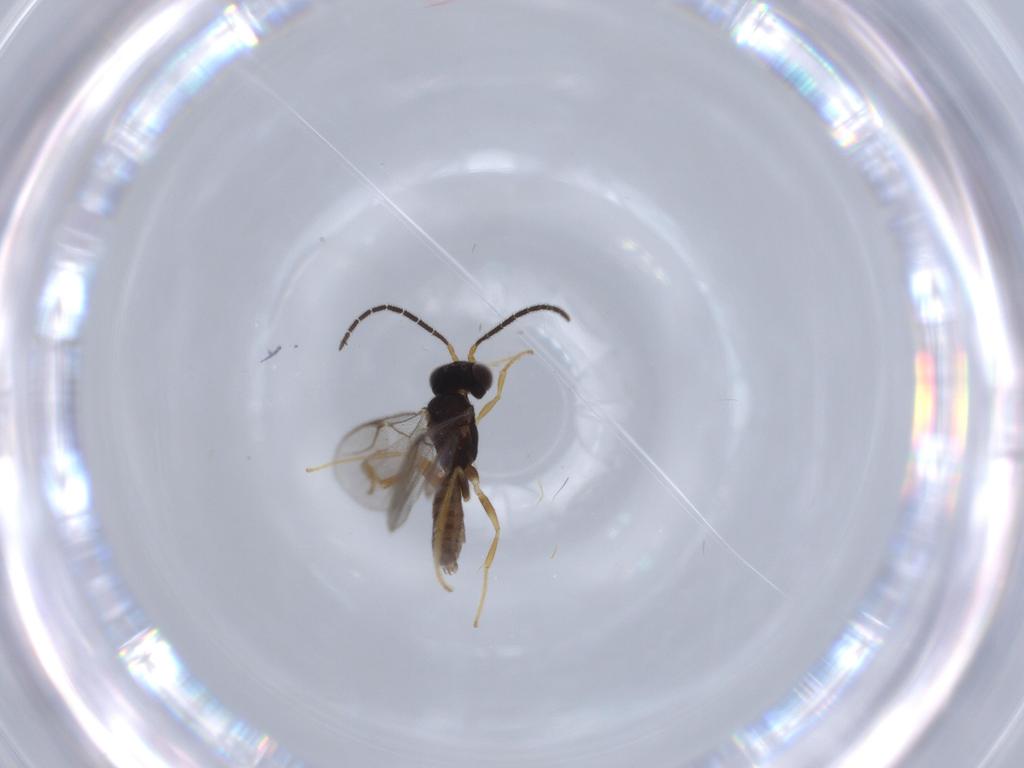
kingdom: Animalia
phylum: Arthropoda
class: Insecta
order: Hymenoptera
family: Dryinidae
